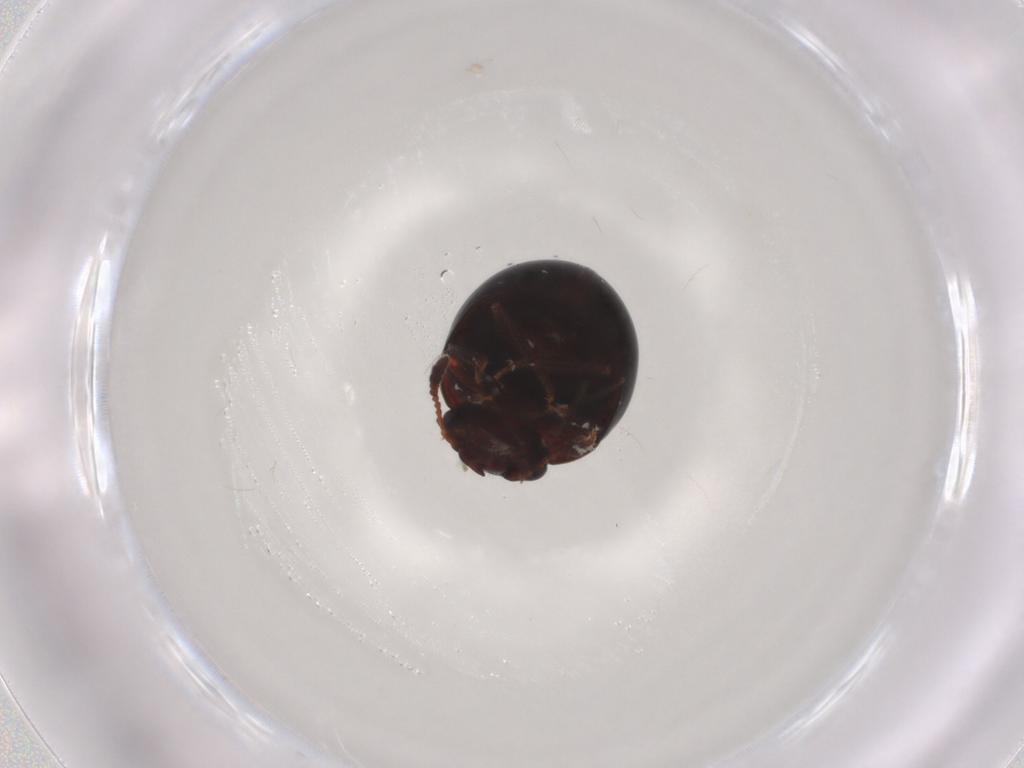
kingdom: Animalia
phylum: Arthropoda
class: Insecta
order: Coleoptera
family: Leiodidae
